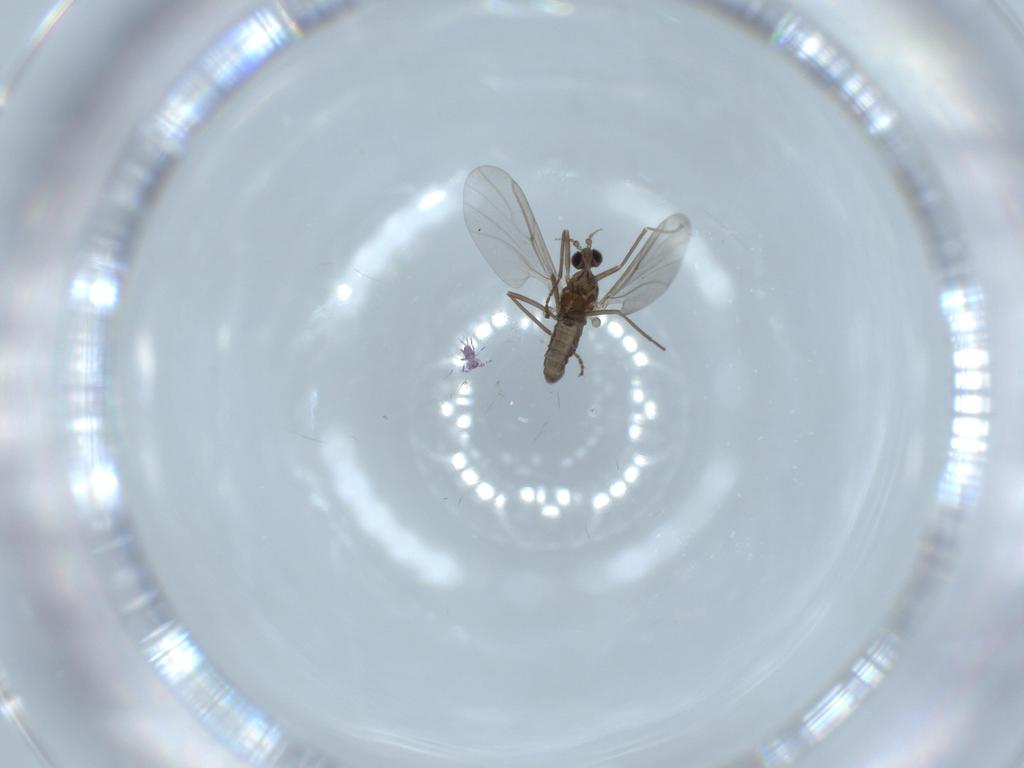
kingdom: Animalia
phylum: Arthropoda
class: Insecta
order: Diptera
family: Cecidomyiidae
